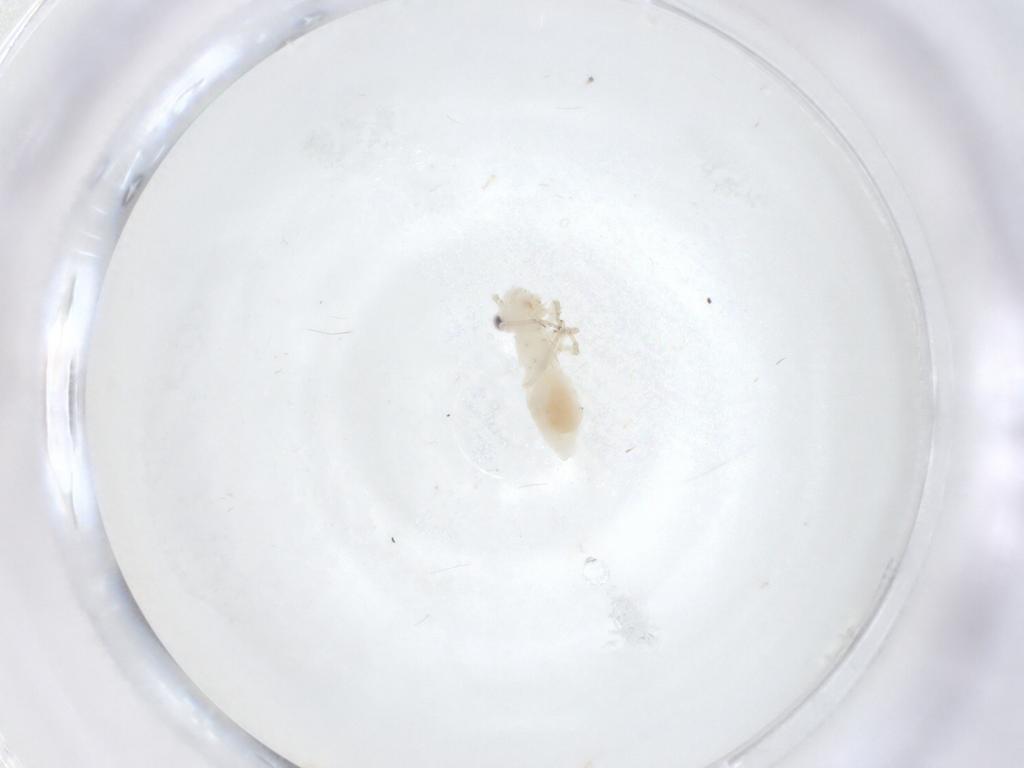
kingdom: Animalia
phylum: Arthropoda
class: Insecta
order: Psocodea
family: Caeciliusidae
